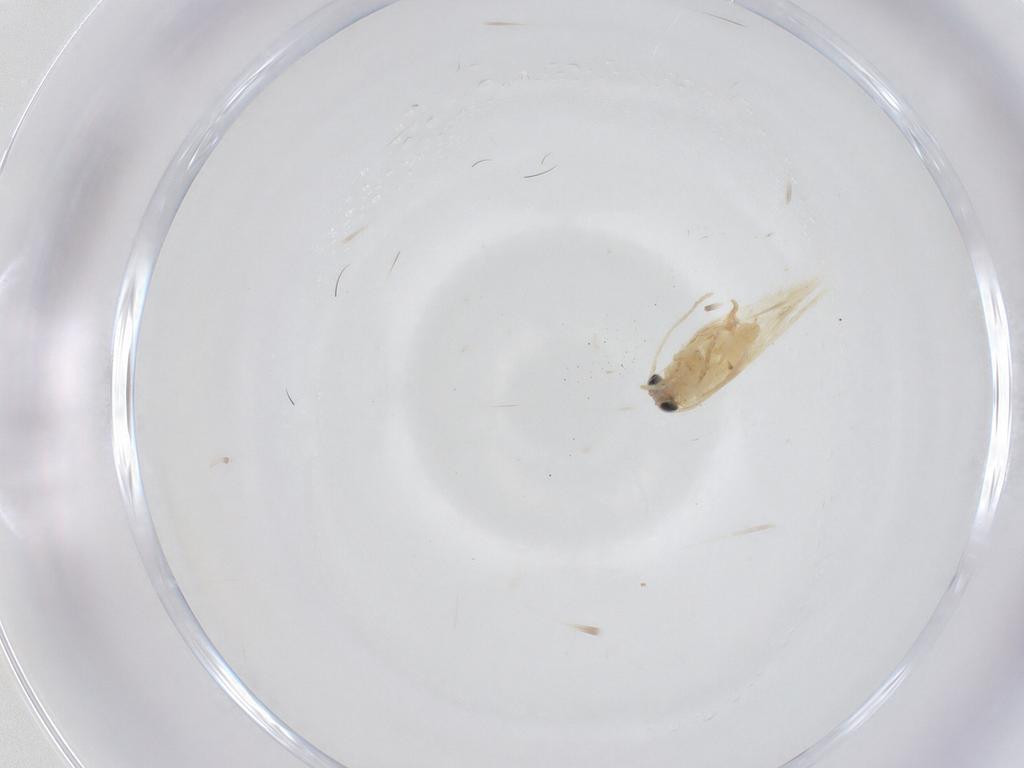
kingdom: Animalia
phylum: Arthropoda
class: Insecta
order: Lepidoptera
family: Nepticulidae
